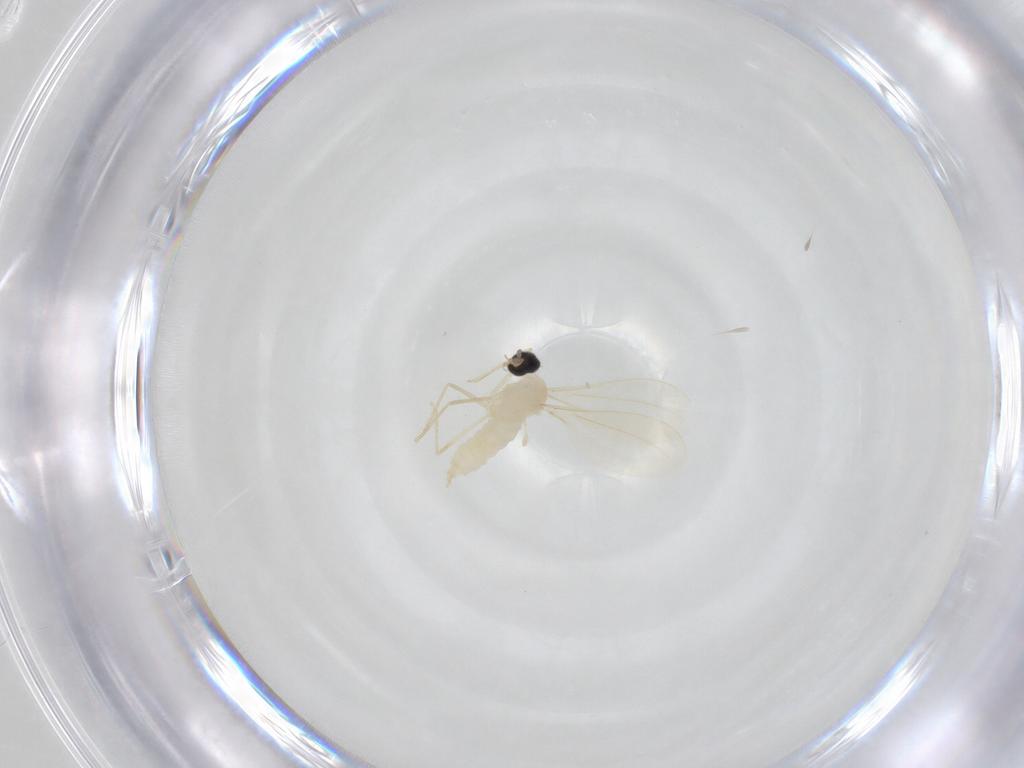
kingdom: Animalia
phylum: Arthropoda
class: Insecta
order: Diptera
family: Cecidomyiidae
